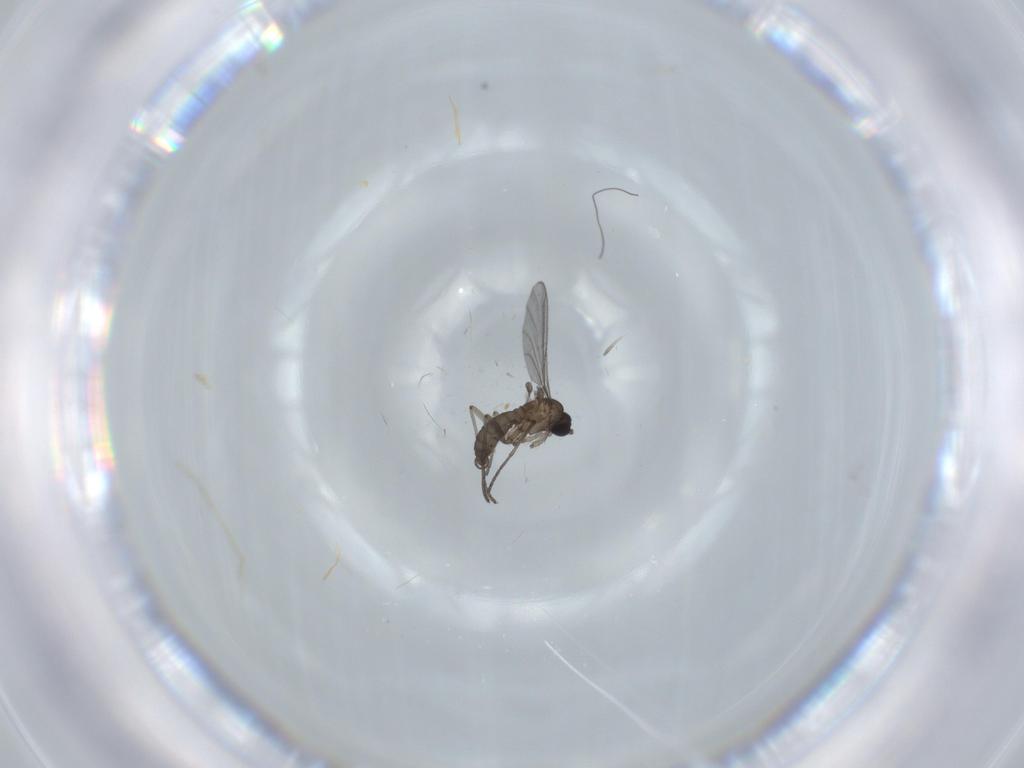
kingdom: Animalia
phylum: Arthropoda
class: Insecta
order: Diptera
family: Sciaridae
